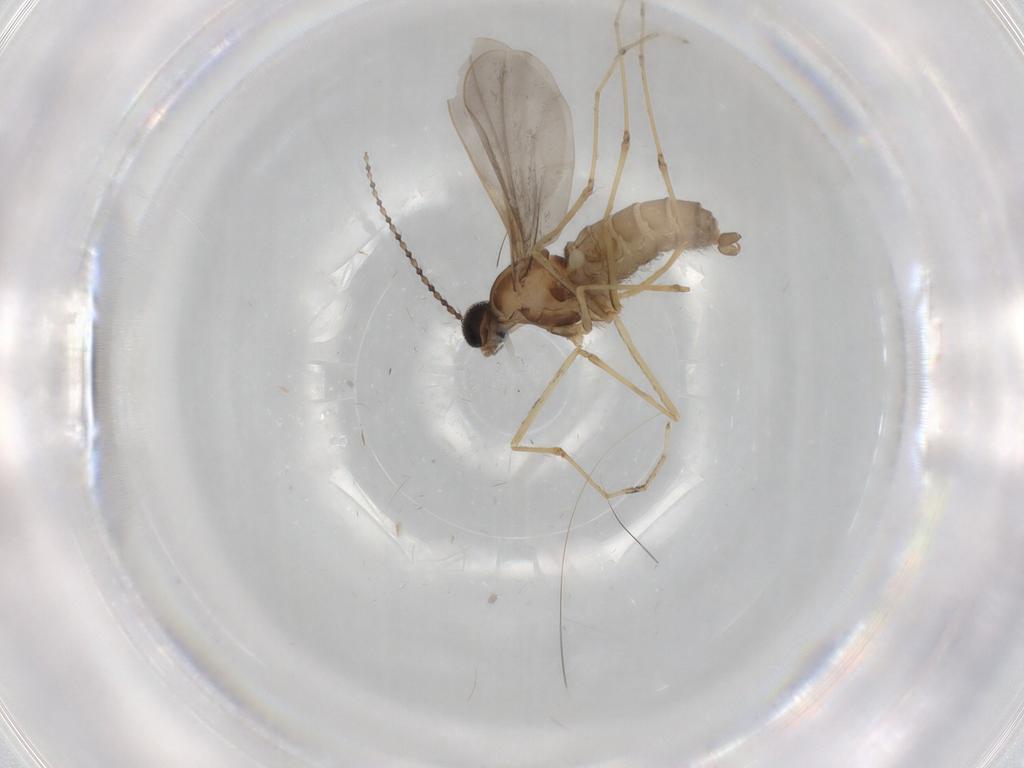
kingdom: Animalia
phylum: Arthropoda
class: Insecta
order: Diptera
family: Cecidomyiidae
